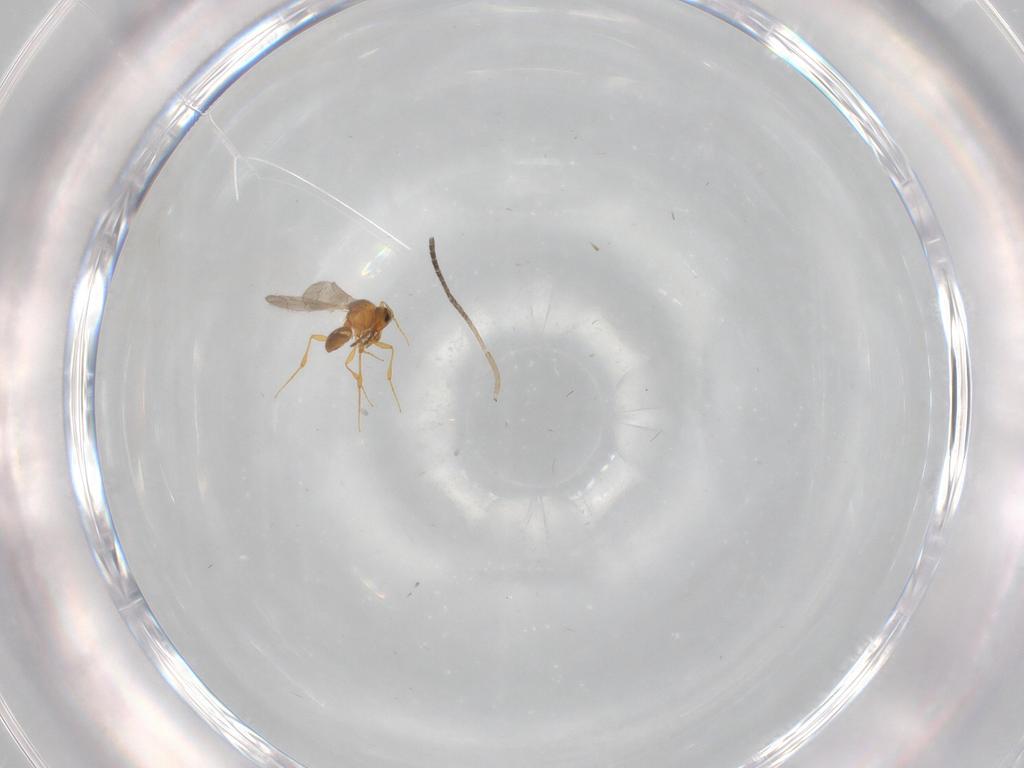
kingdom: Animalia
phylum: Arthropoda
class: Insecta
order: Hymenoptera
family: Platygastridae
